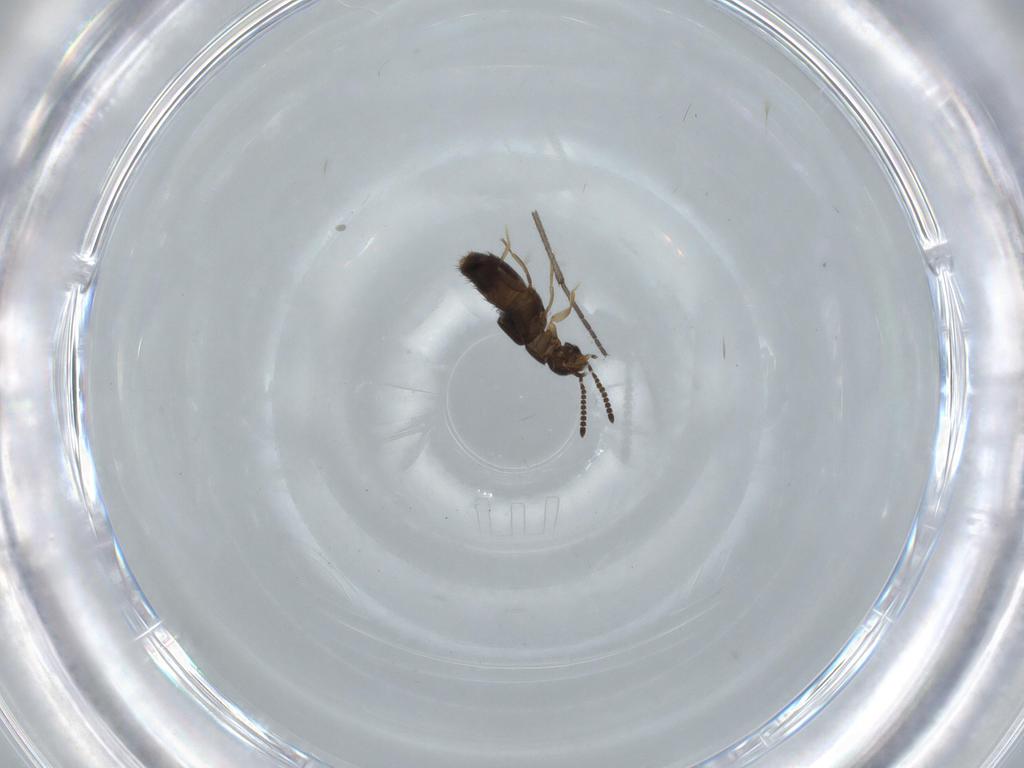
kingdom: Animalia
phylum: Arthropoda
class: Insecta
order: Coleoptera
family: Staphylinidae
